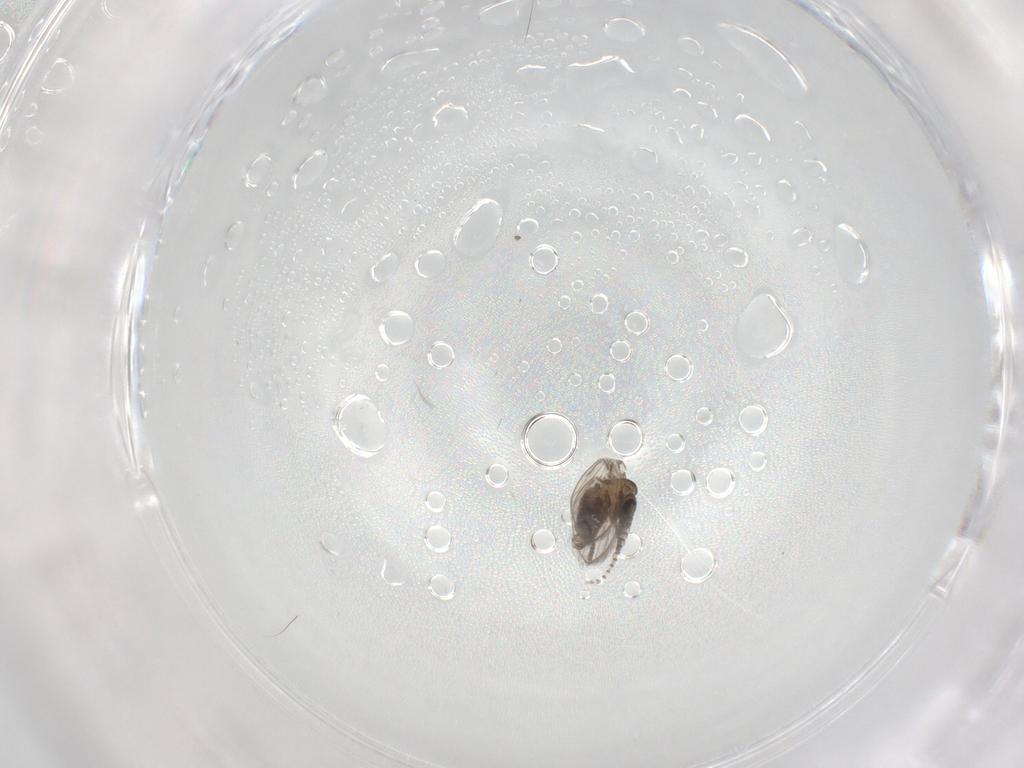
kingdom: Animalia
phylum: Arthropoda
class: Insecta
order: Diptera
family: Psychodidae
